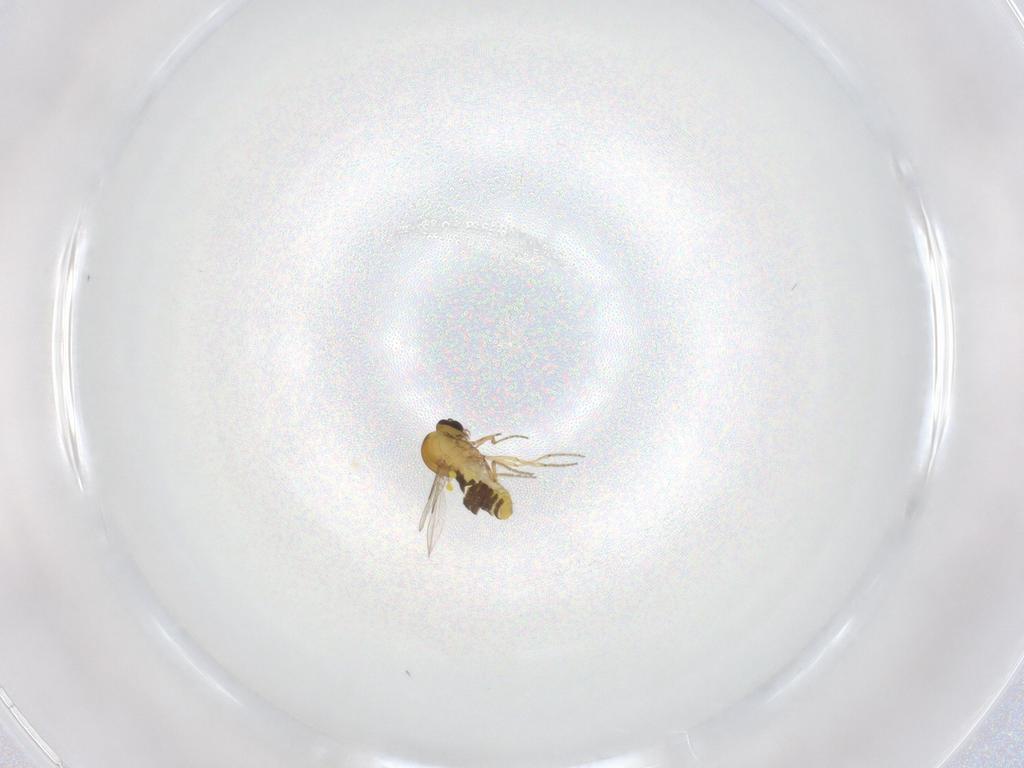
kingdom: Animalia
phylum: Arthropoda
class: Insecta
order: Diptera
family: Ceratopogonidae
